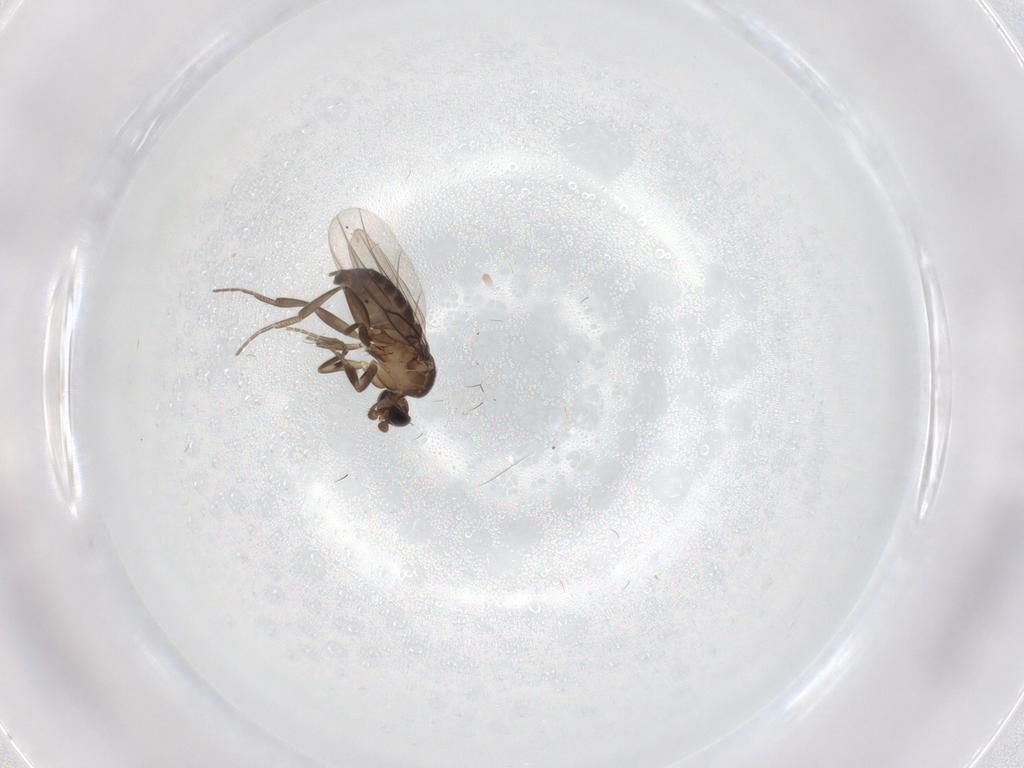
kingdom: Animalia
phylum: Arthropoda
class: Insecta
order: Diptera
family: Phoridae
